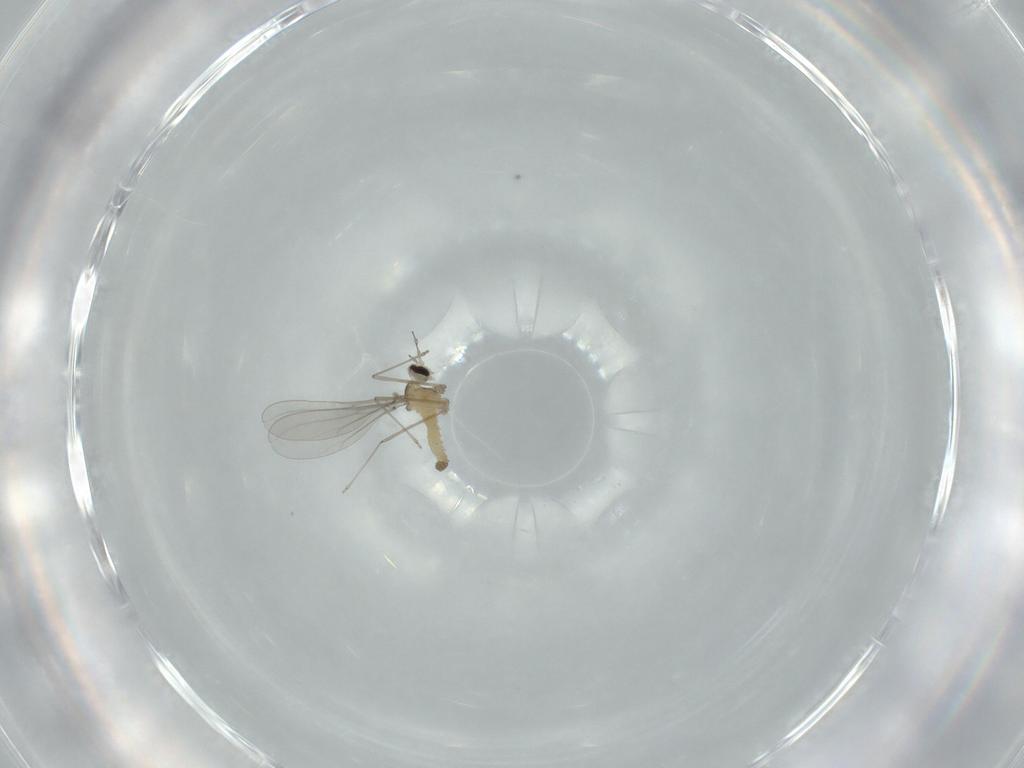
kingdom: Animalia
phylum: Arthropoda
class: Insecta
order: Diptera
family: Cecidomyiidae
